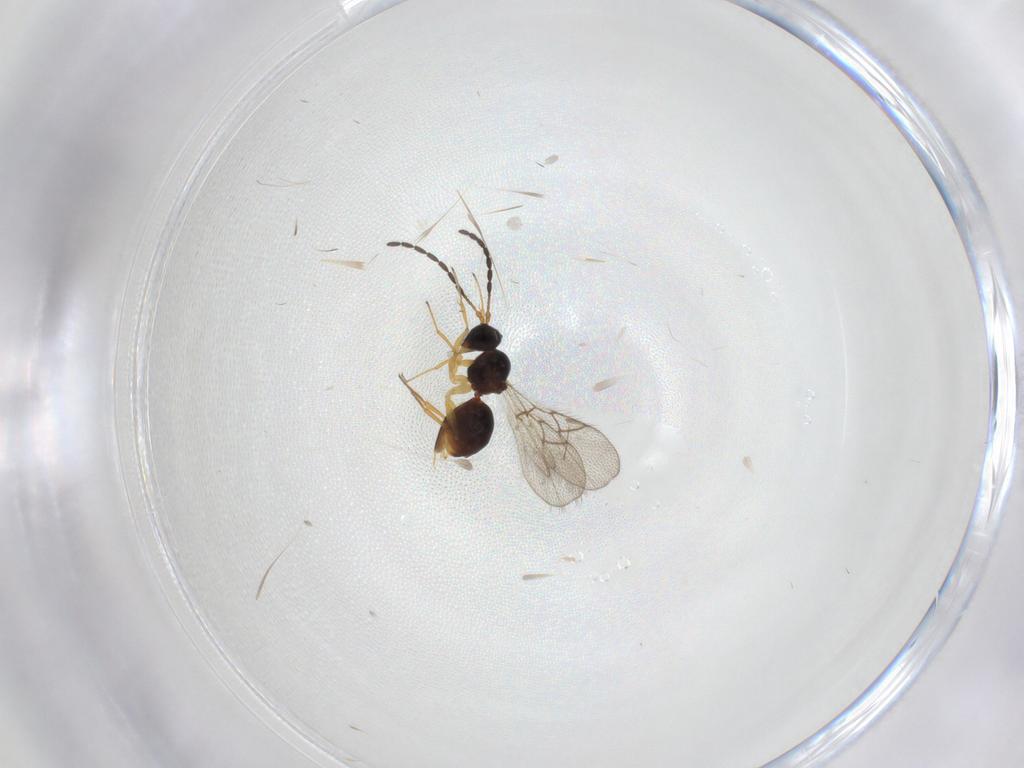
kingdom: Animalia
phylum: Arthropoda
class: Insecta
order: Hymenoptera
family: Figitidae
